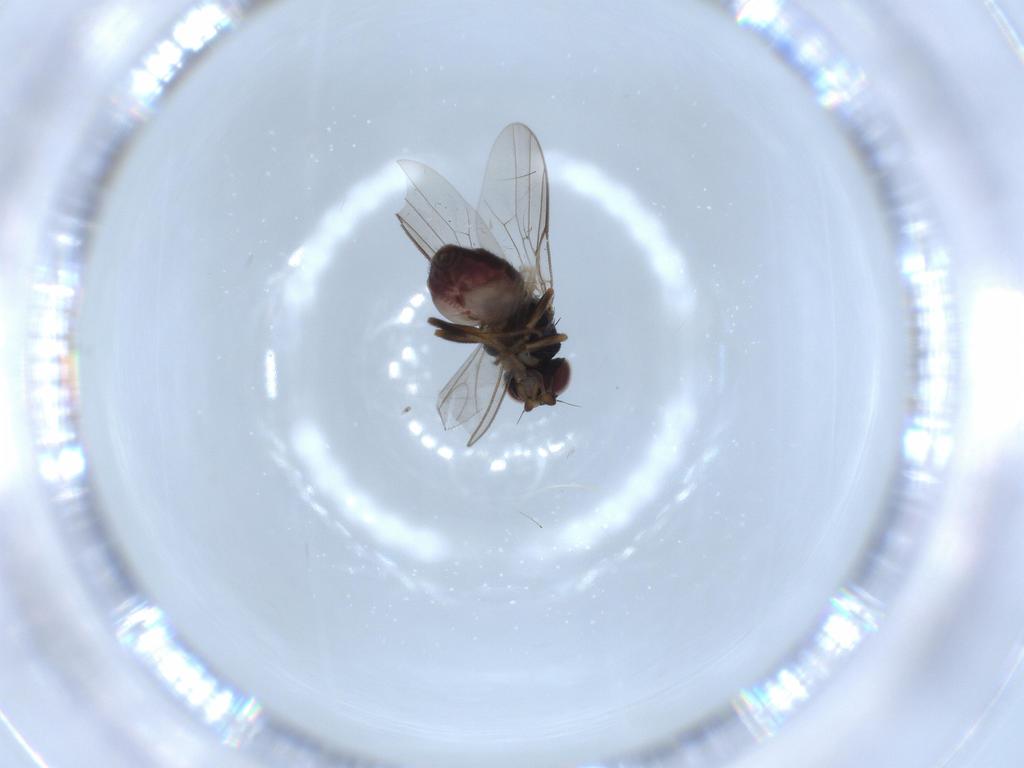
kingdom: Animalia
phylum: Arthropoda
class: Insecta
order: Diptera
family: Chloropidae
